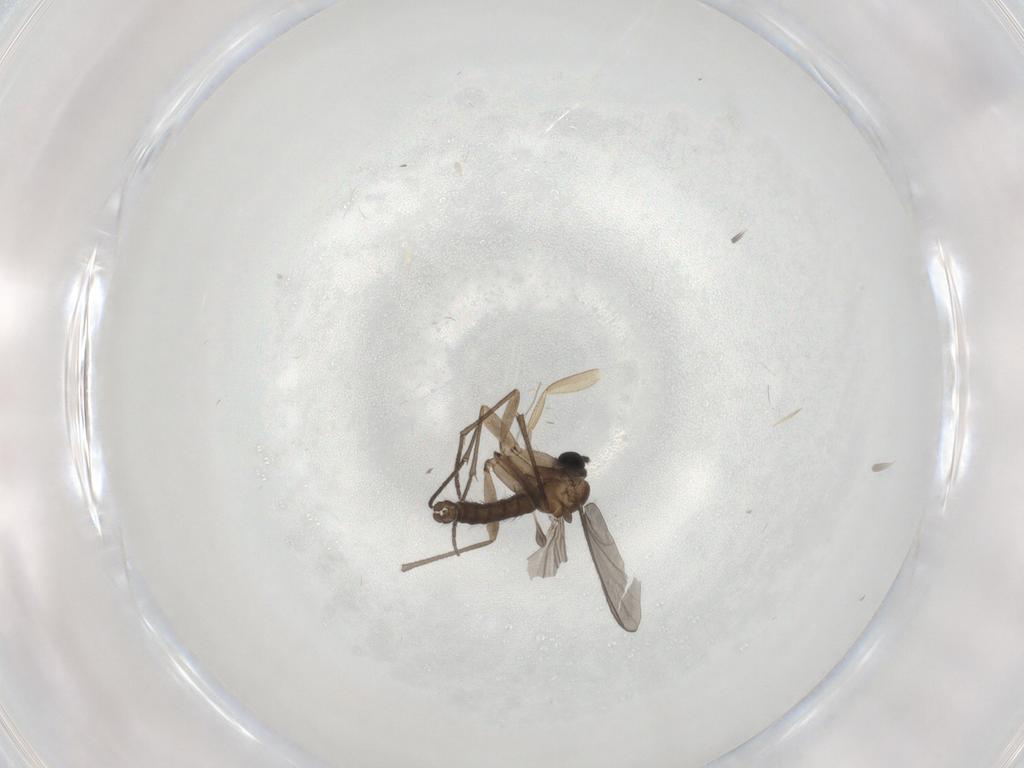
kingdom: Animalia
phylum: Arthropoda
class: Insecta
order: Diptera
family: Phoridae
